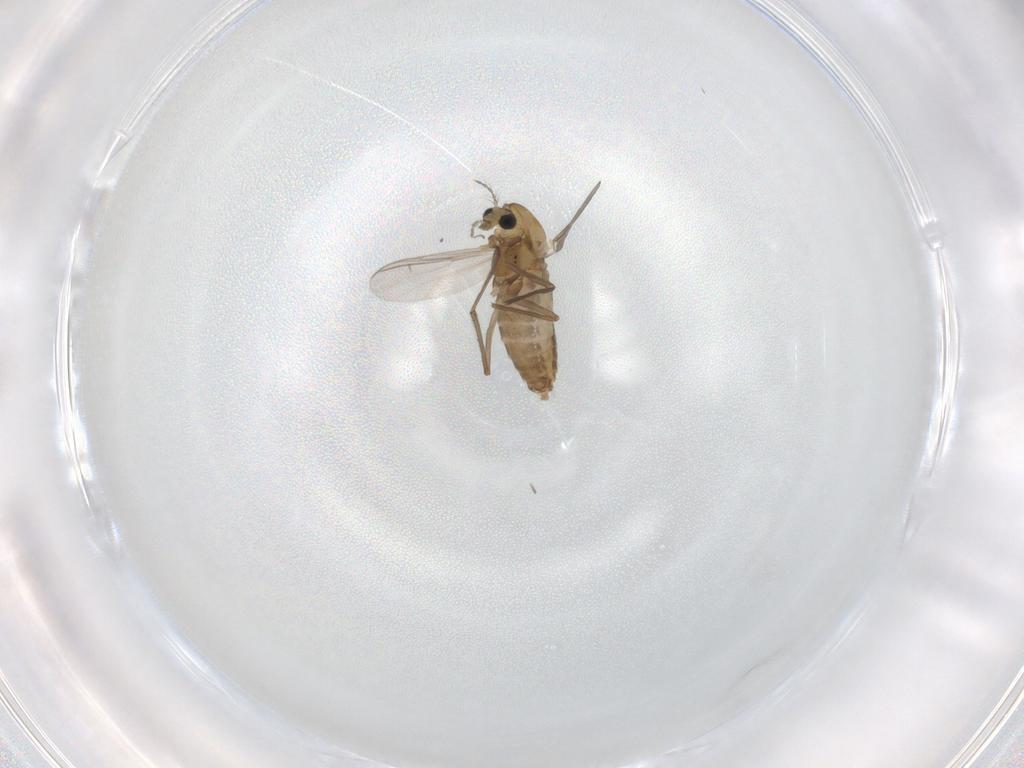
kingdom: Animalia
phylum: Arthropoda
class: Insecta
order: Diptera
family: Chironomidae
